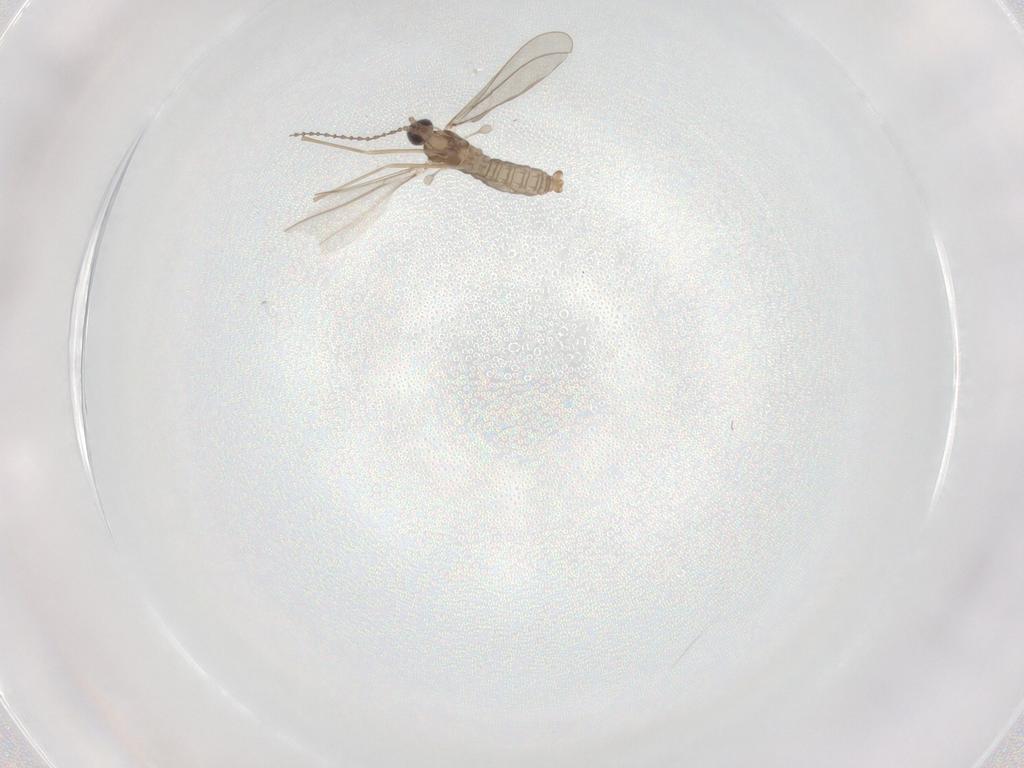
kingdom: Animalia
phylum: Arthropoda
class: Insecta
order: Diptera
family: Cecidomyiidae
